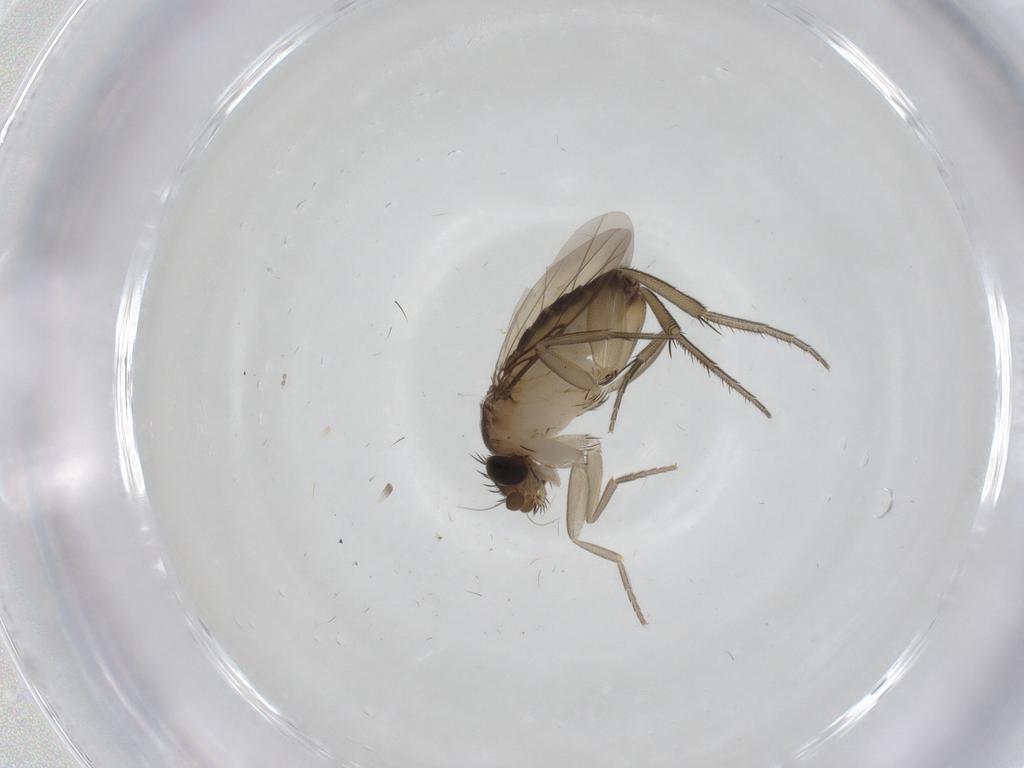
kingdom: Animalia
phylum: Arthropoda
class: Insecta
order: Diptera
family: Phoridae
